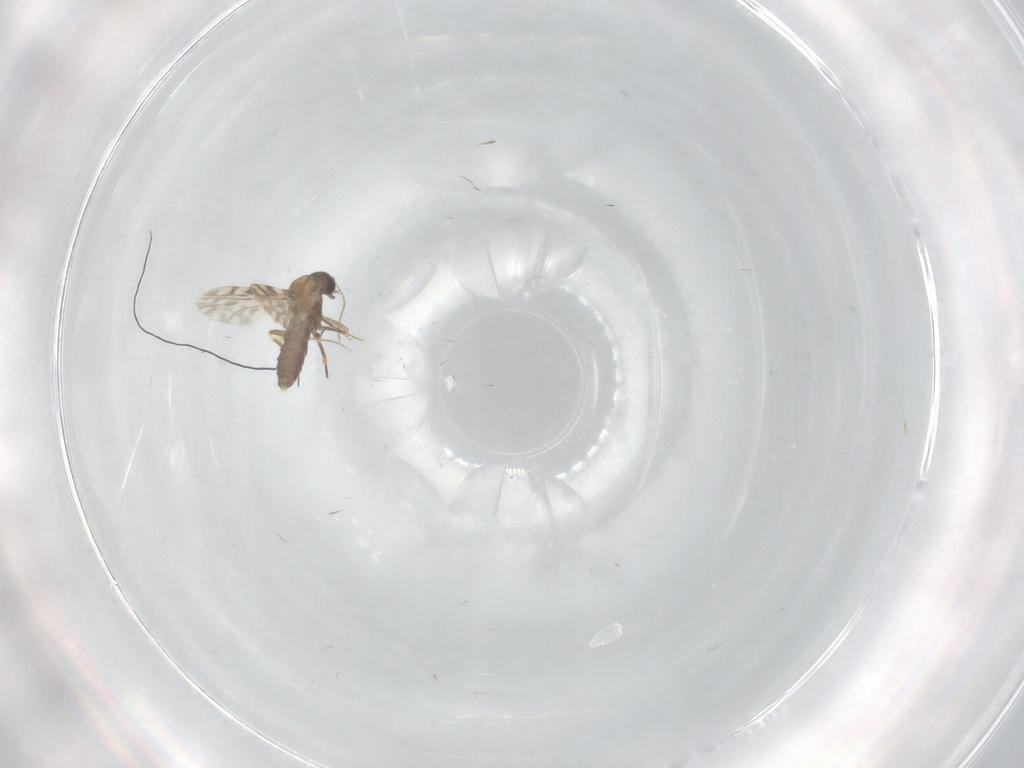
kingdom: Animalia
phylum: Arthropoda
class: Insecta
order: Diptera
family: Ceratopogonidae
